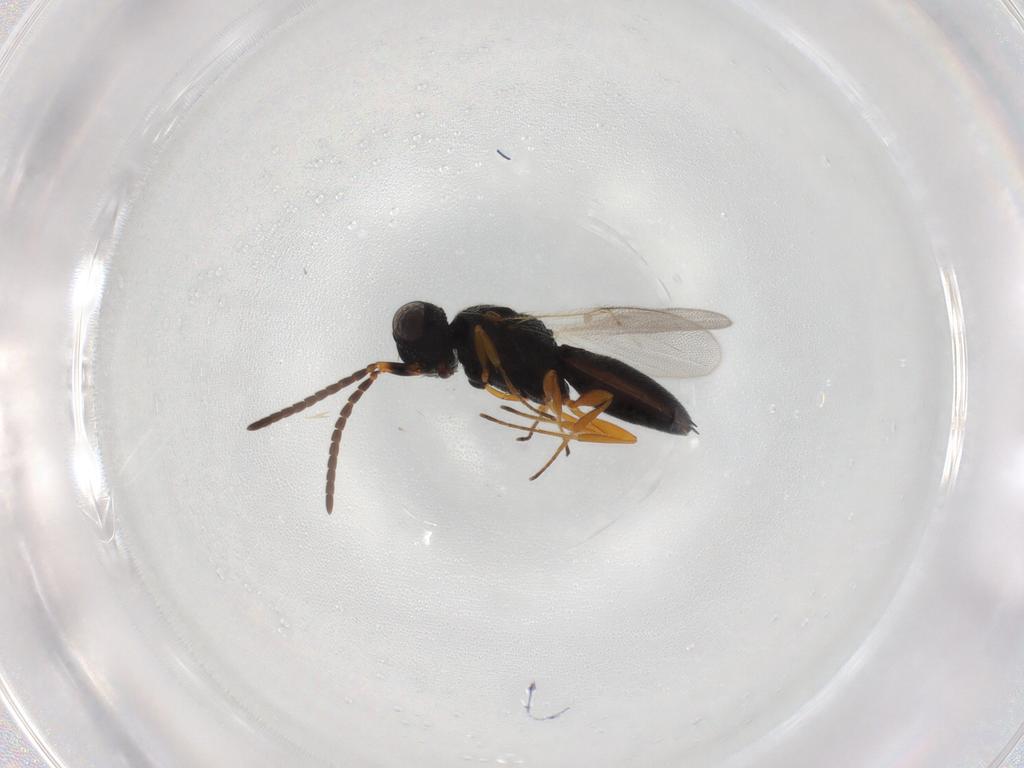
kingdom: Animalia
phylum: Arthropoda
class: Insecta
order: Hymenoptera
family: Scelionidae
